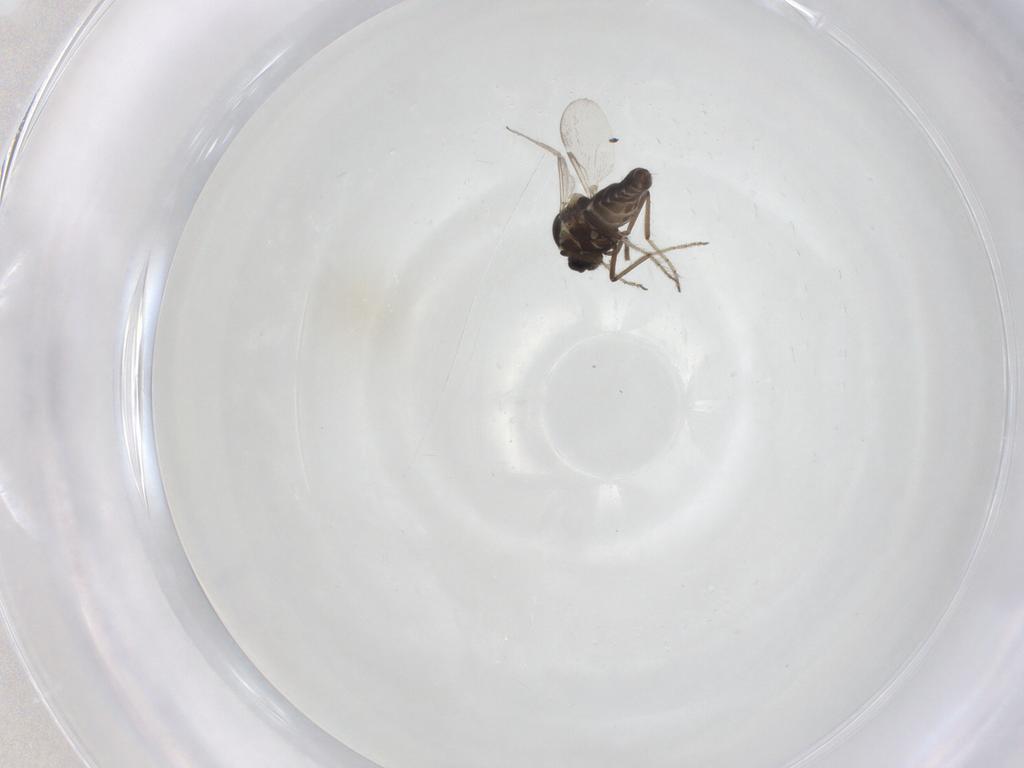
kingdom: Animalia
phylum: Arthropoda
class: Insecta
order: Diptera
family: Ceratopogonidae
